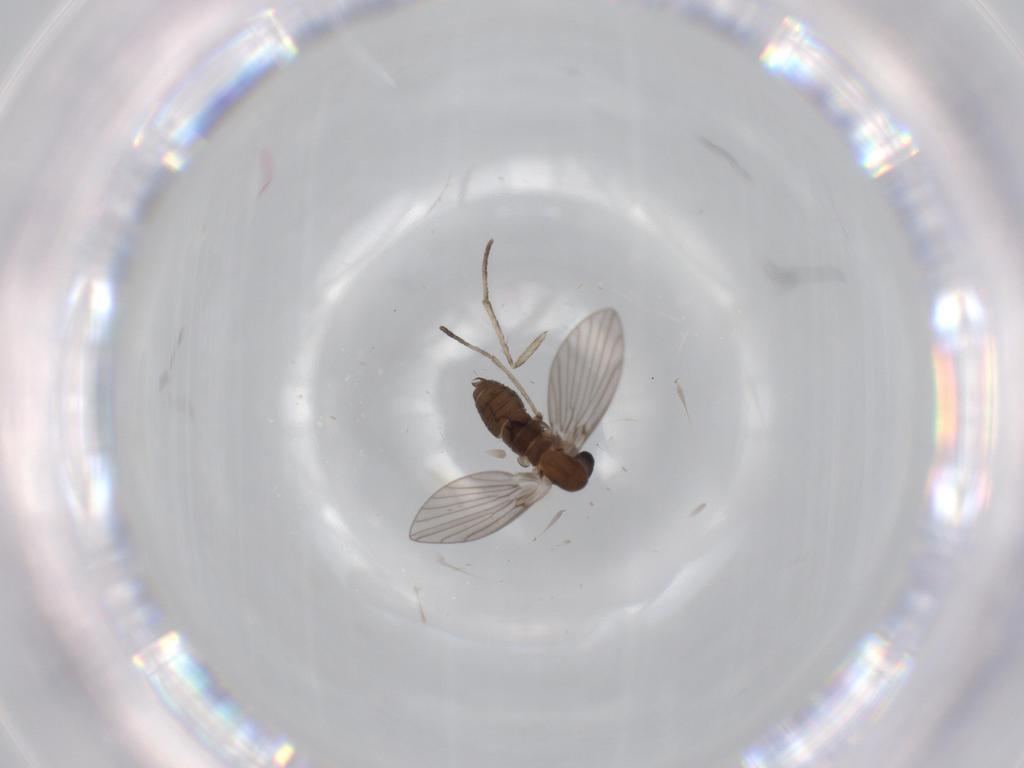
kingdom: Animalia
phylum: Arthropoda
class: Insecta
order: Diptera
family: Psychodidae
